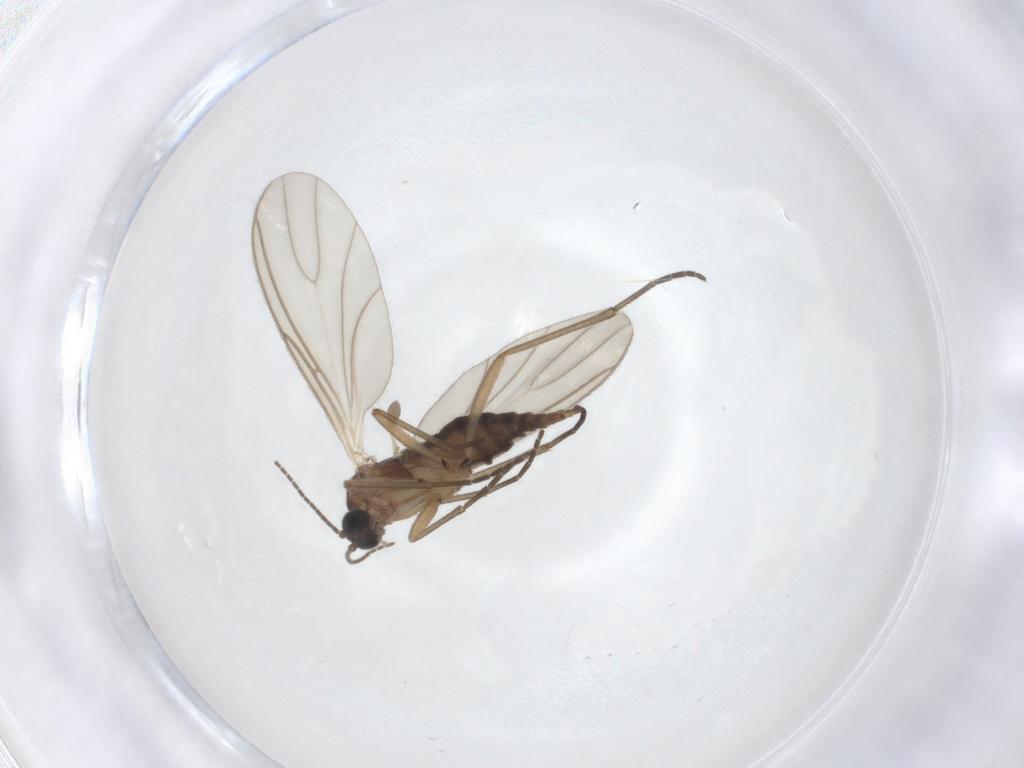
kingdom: Animalia
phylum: Arthropoda
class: Insecta
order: Diptera
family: Sciaridae
